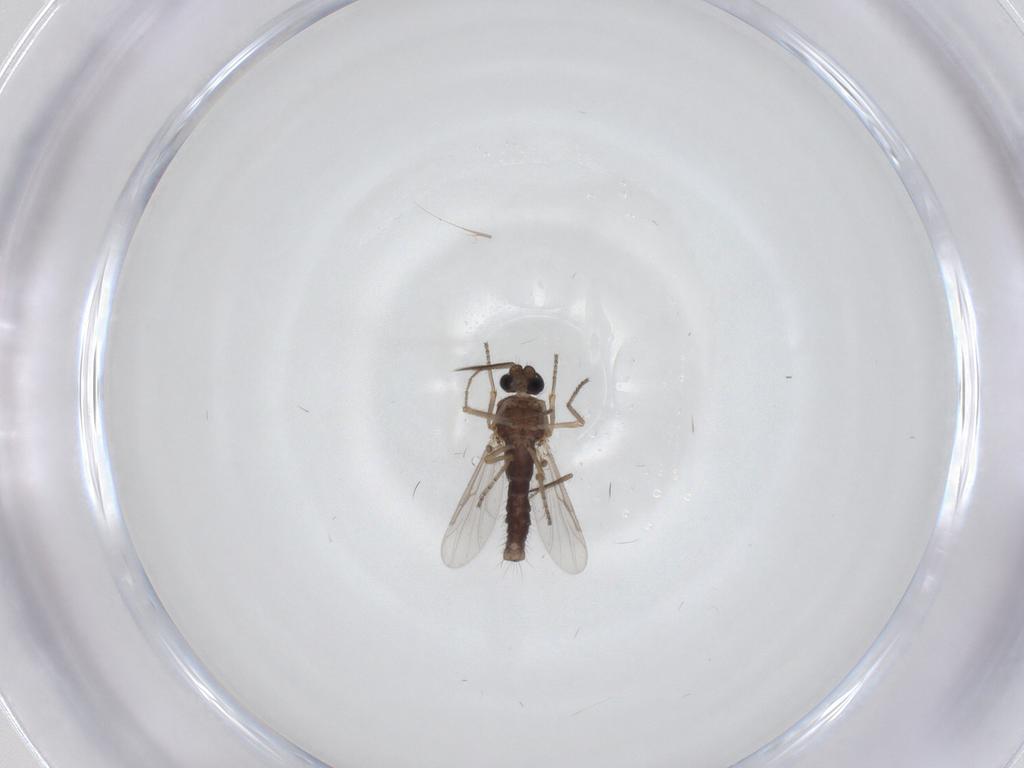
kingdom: Animalia
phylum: Arthropoda
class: Insecta
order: Diptera
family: Ceratopogonidae
